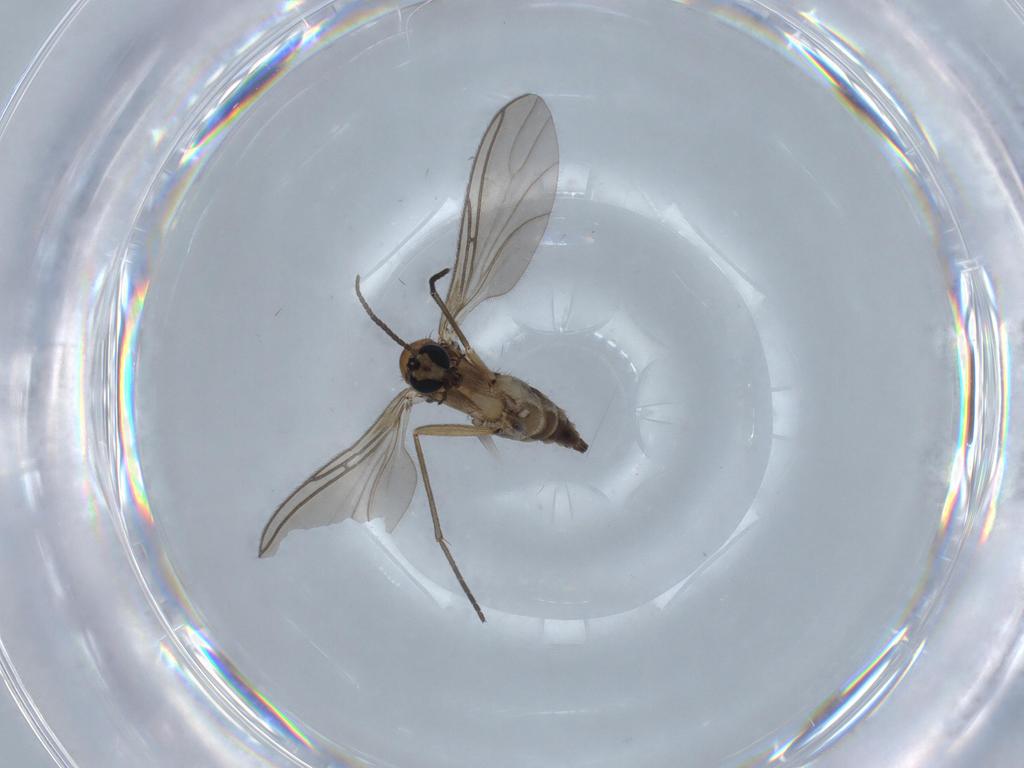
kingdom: Animalia
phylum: Arthropoda
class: Insecta
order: Diptera
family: Sciaridae
